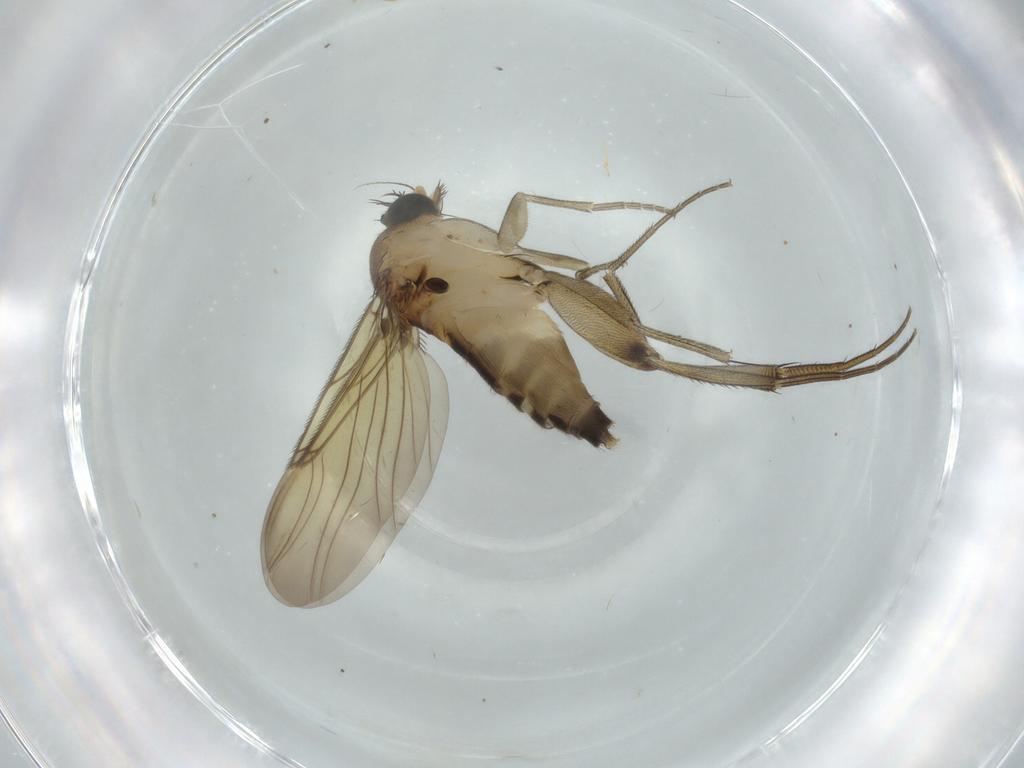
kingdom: Animalia
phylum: Arthropoda
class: Insecta
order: Diptera
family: Phoridae
